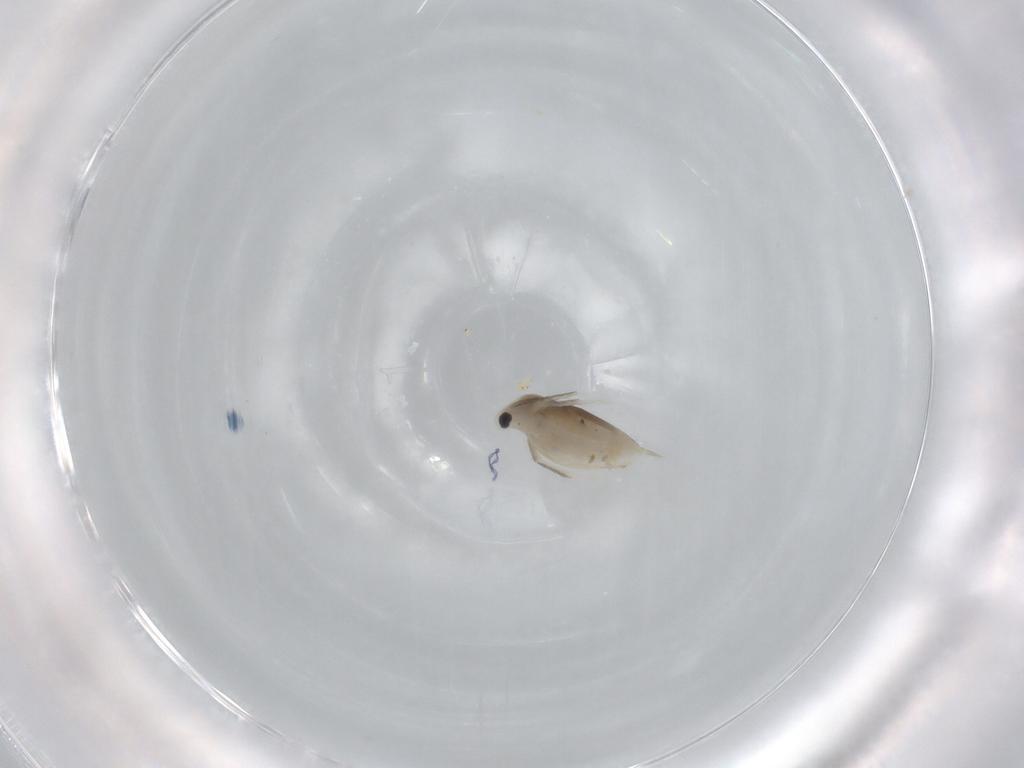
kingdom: Animalia
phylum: Arthropoda
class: Branchiopoda
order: Diplostraca
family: Daphniidae
